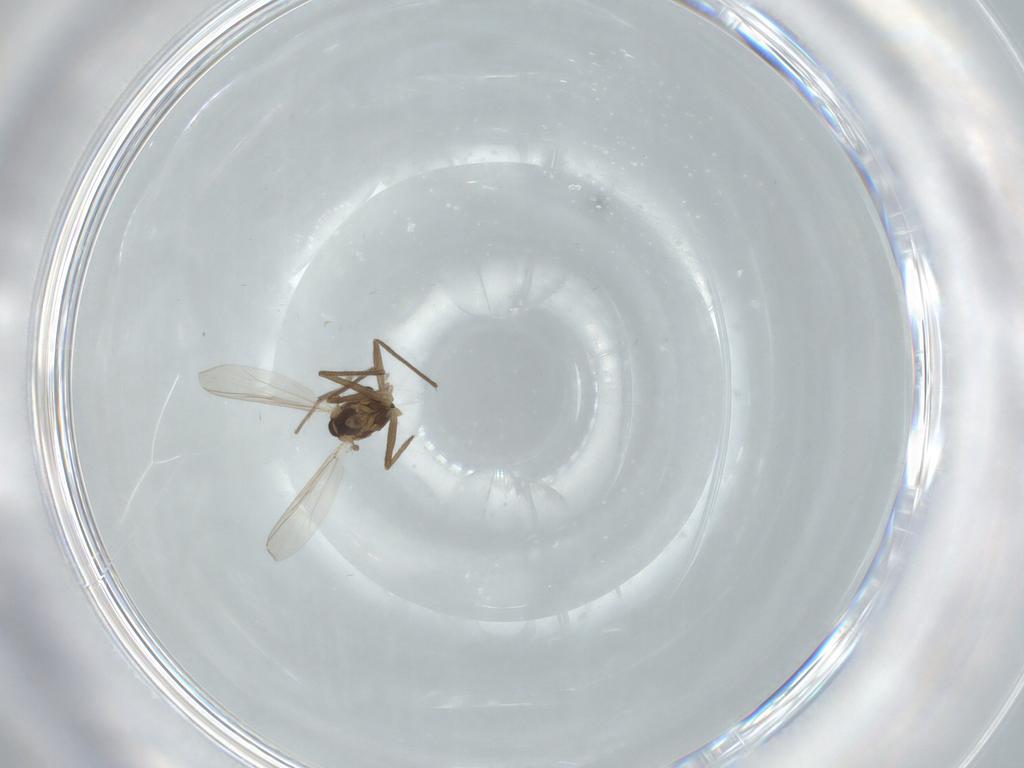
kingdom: Animalia
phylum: Arthropoda
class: Insecta
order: Diptera
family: Chironomidae
